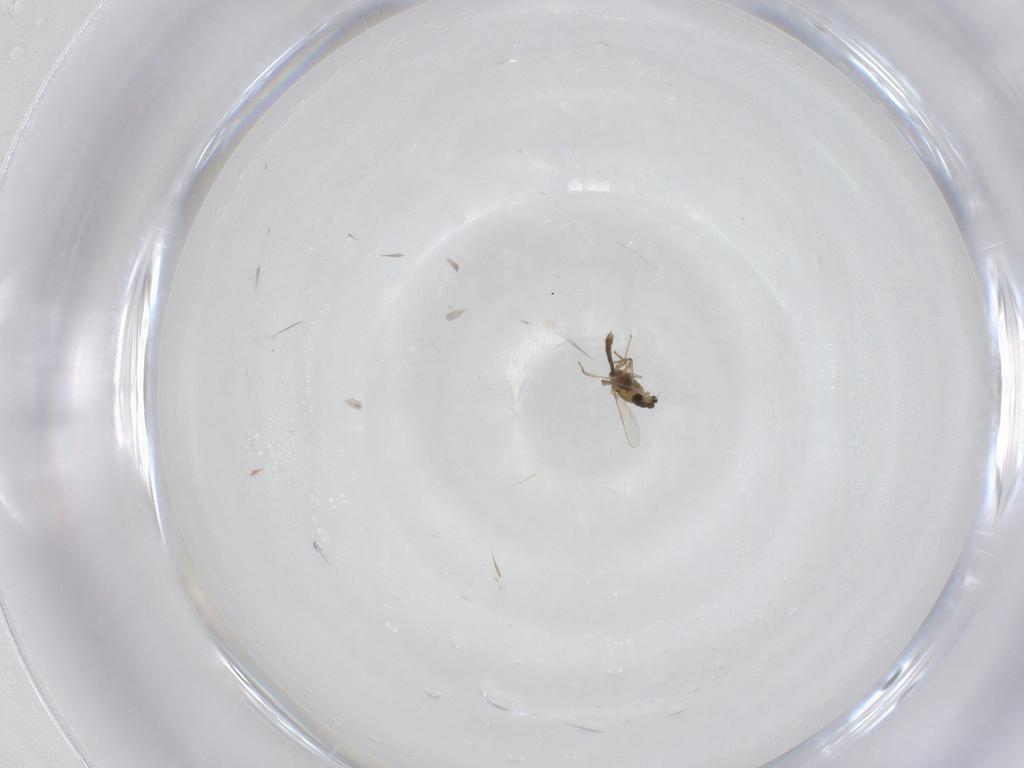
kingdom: Animalia
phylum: Arthropoda
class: Insecta
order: Diptera
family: Cecidomyiidae
